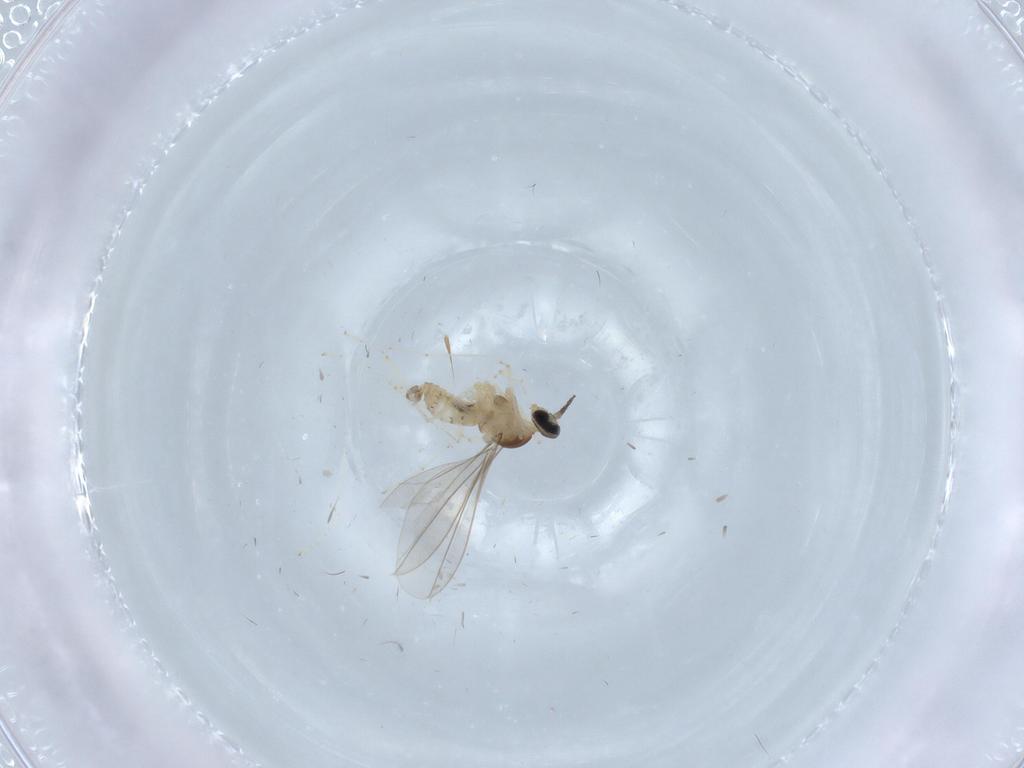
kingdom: Animalia
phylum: Arthropoda
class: Insecta
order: Diptera
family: Cecidomyiidae
